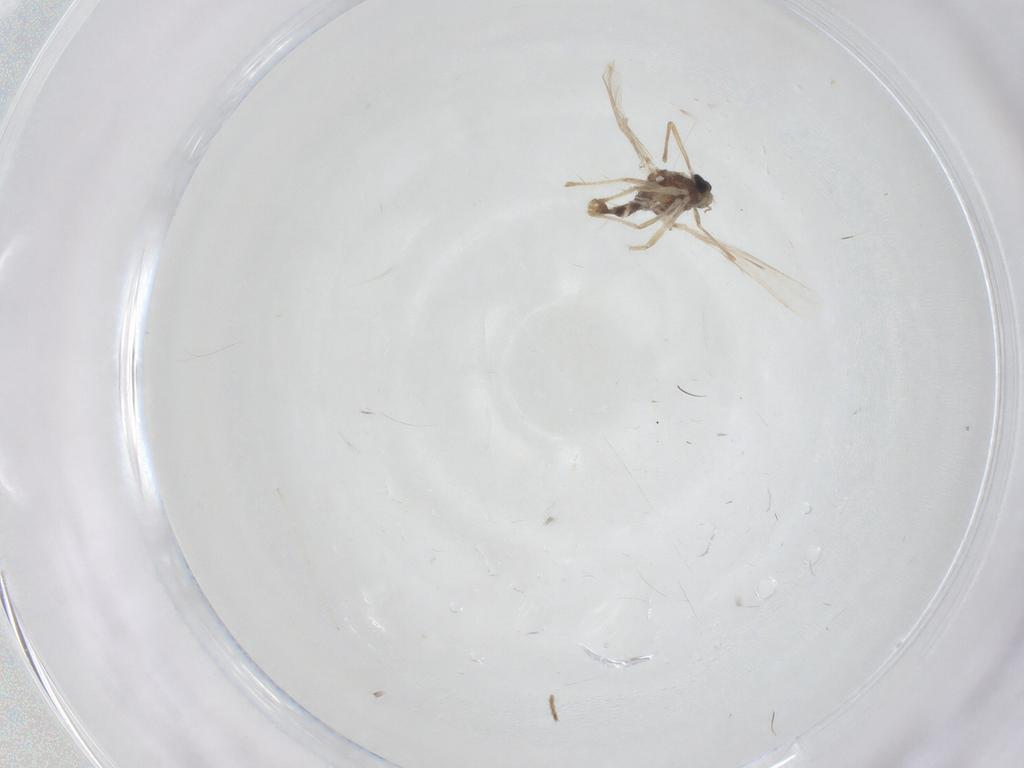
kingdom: Animalia
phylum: Arthropoda
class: Insecta
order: Diptera
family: Chironomidae
